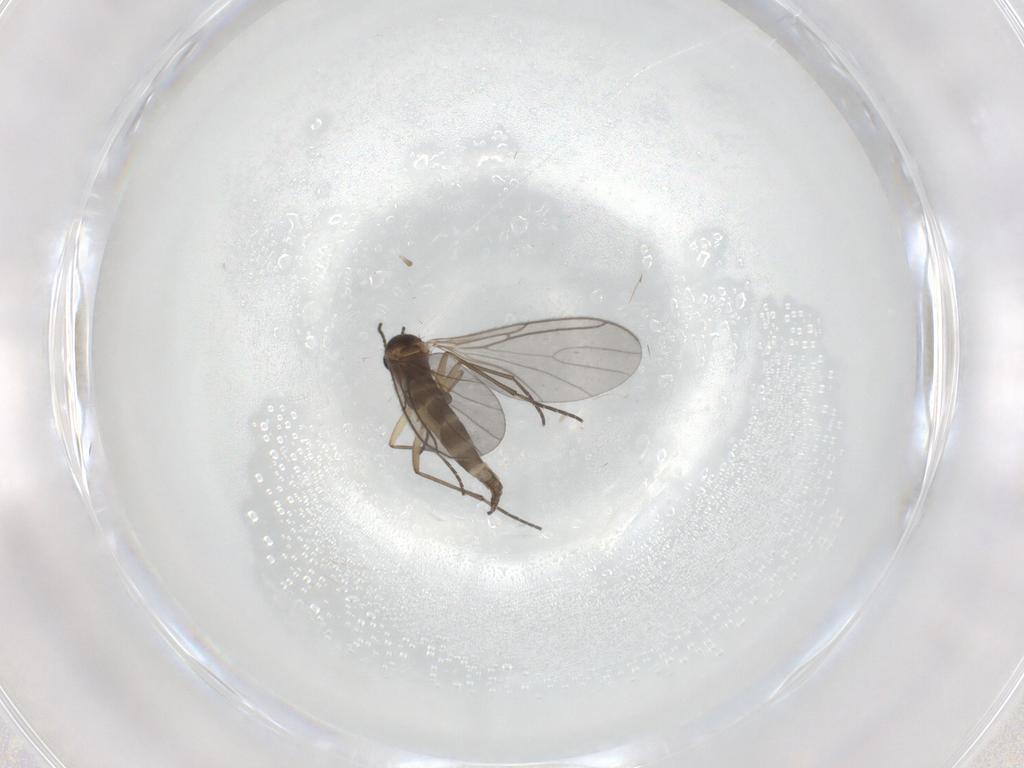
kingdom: Animalia
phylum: Arthropoda
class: Insecta
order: Diptera
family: Sciaridae
